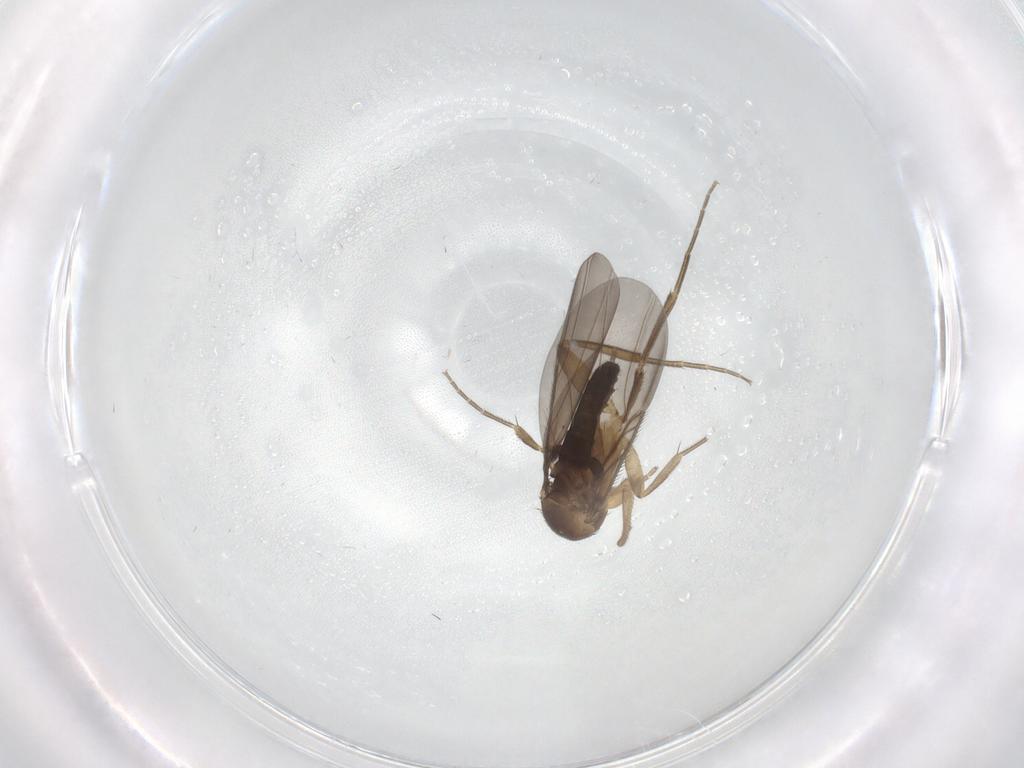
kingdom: Animalia
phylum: Arthropoda
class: Insecta
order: Diptera
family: Phoridae
